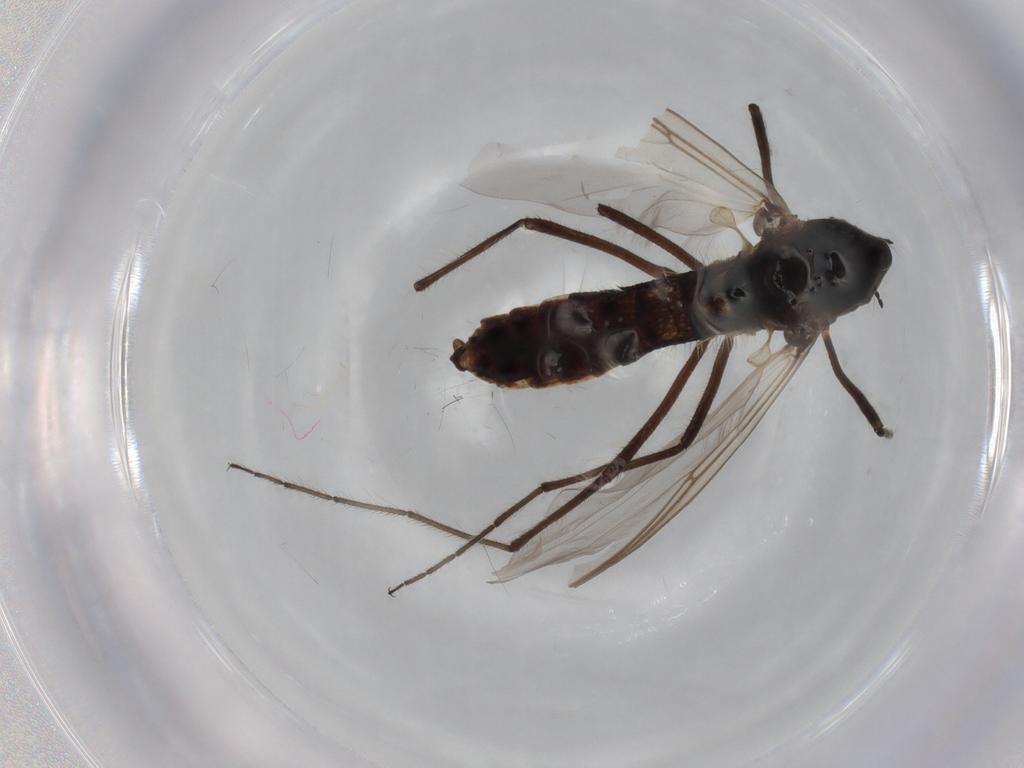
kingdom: Animalia
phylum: Arthropoda
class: Insecta
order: Diptera
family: Chironomidae
